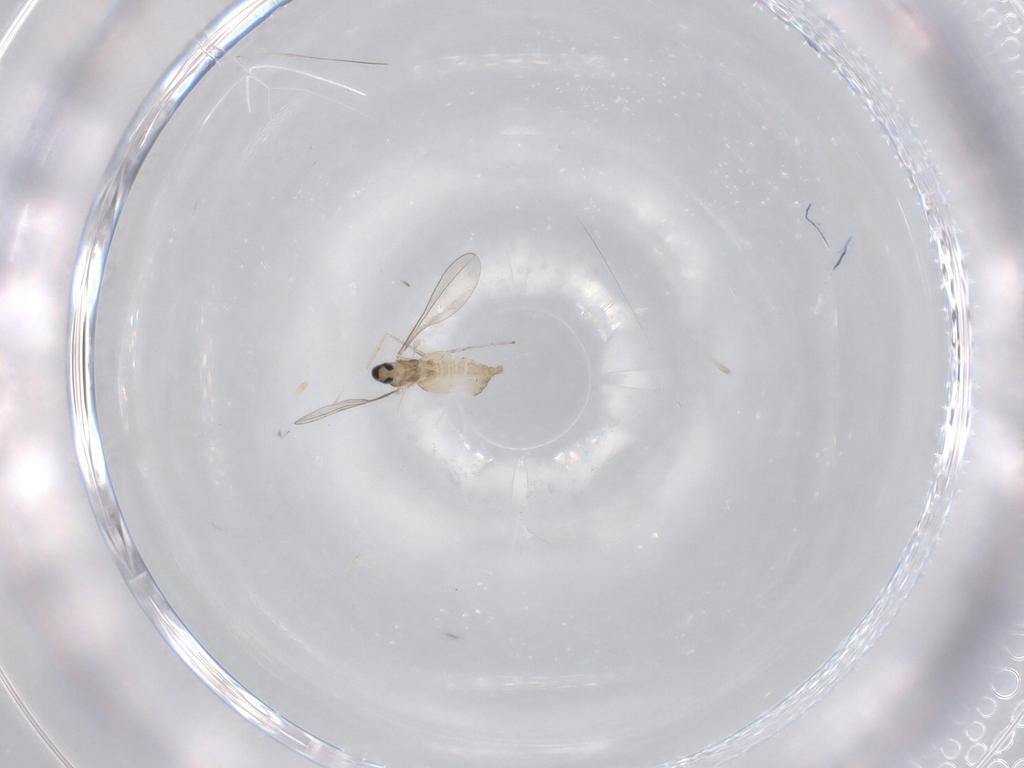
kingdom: Animalia
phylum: Arthropoda
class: Insecta
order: Diptera
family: Cecidomyiidae
